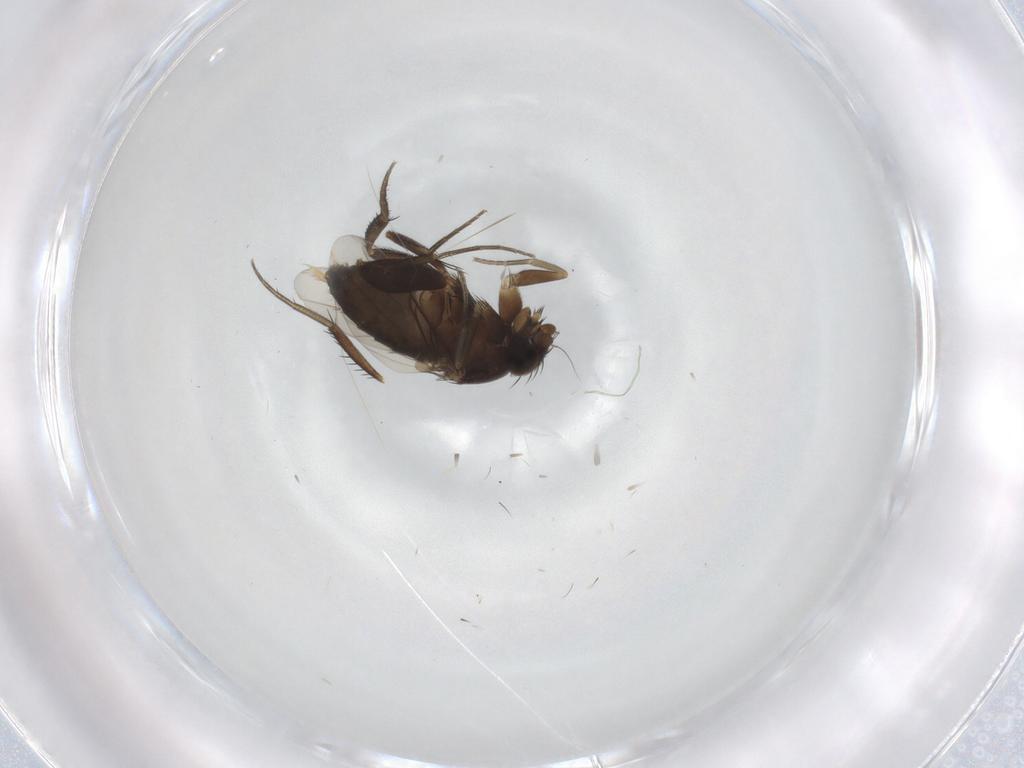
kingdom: Animalia
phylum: Arthropoda
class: Insecta
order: Diptera
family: Phoridae
